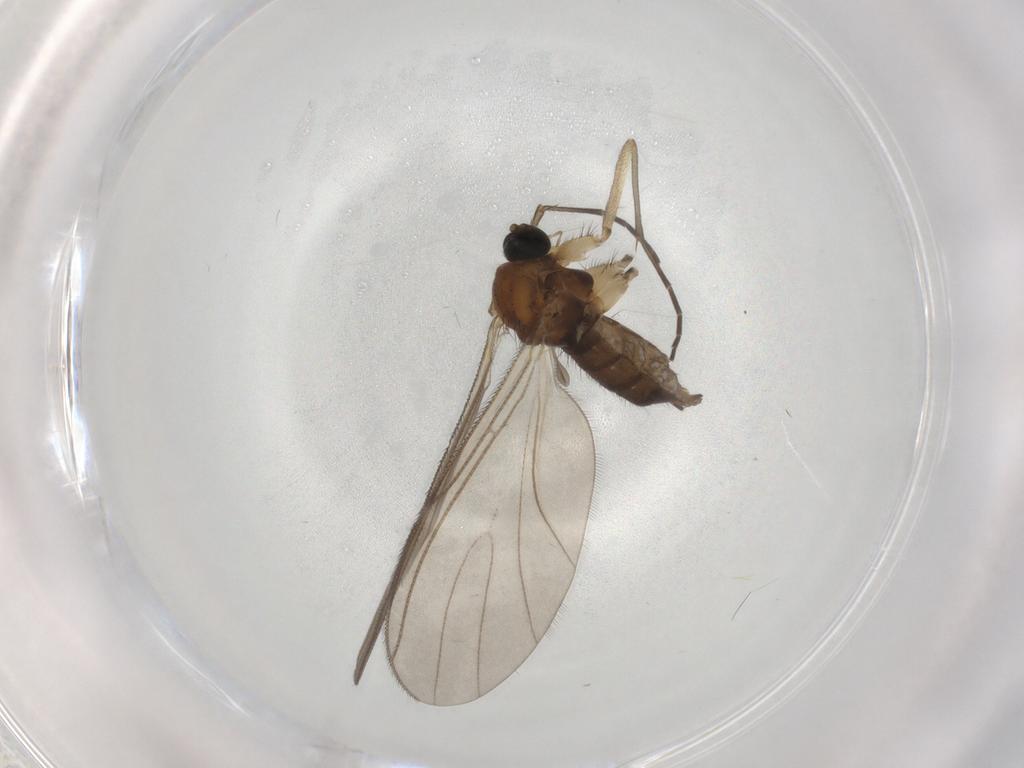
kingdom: Animalia
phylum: Arthropoda
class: Insecta
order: Diptera
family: Sciaridae
